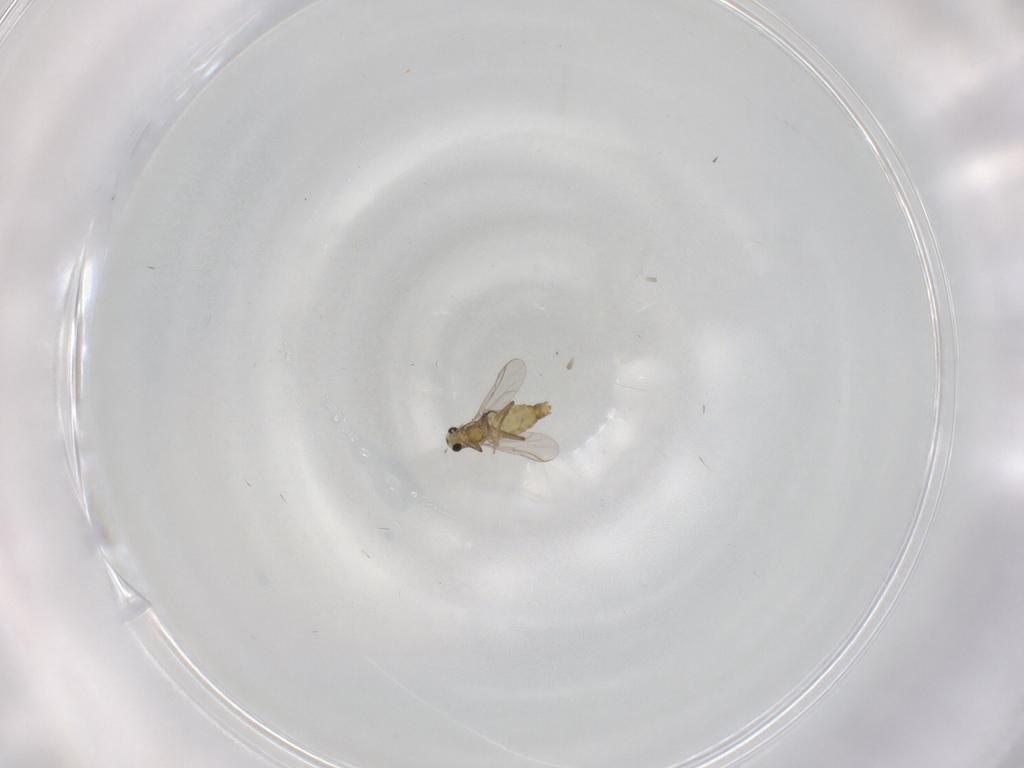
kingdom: Animalia
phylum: Arthropoda
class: Insecta
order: Diptera
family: Chironomidae
